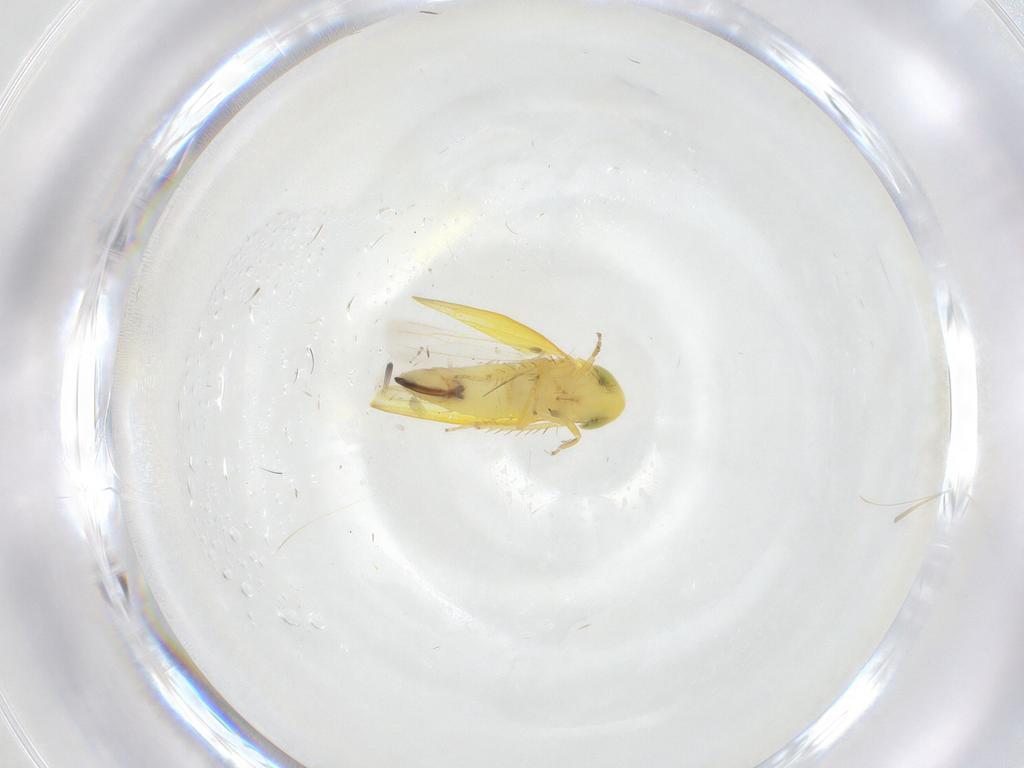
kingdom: Animalia
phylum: Arthropoda
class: Insecta
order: Hemiptera
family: Cicadellidae
